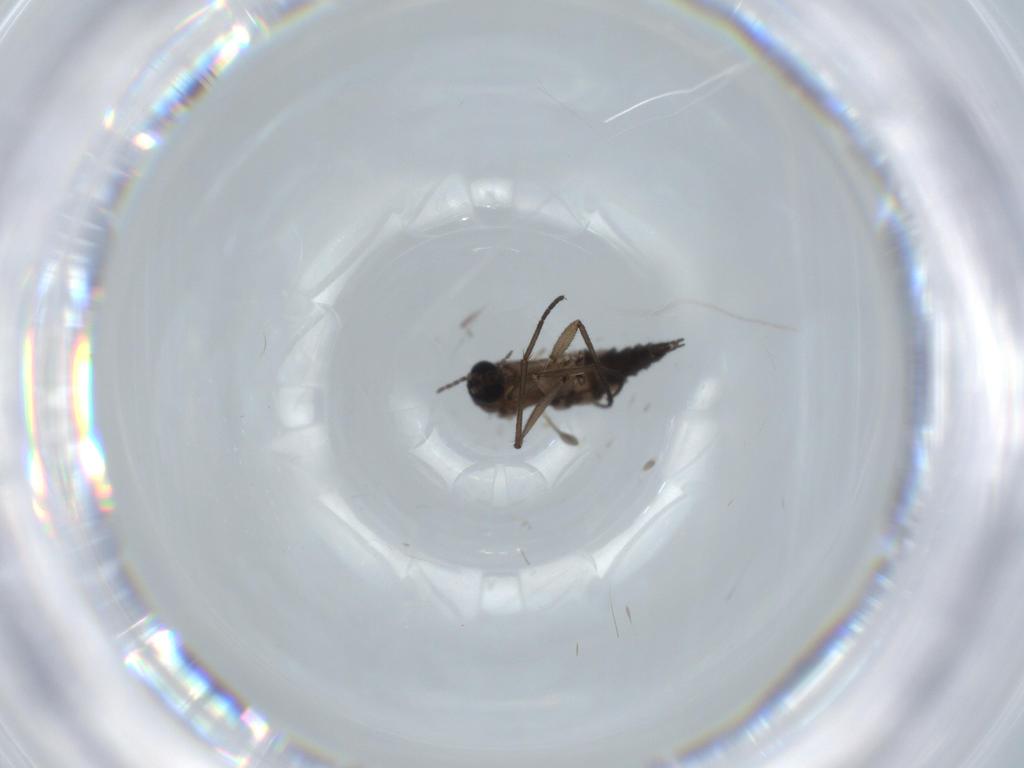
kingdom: Animalia
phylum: Arthropoda
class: Insecta
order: Diptera
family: Sciaridae
